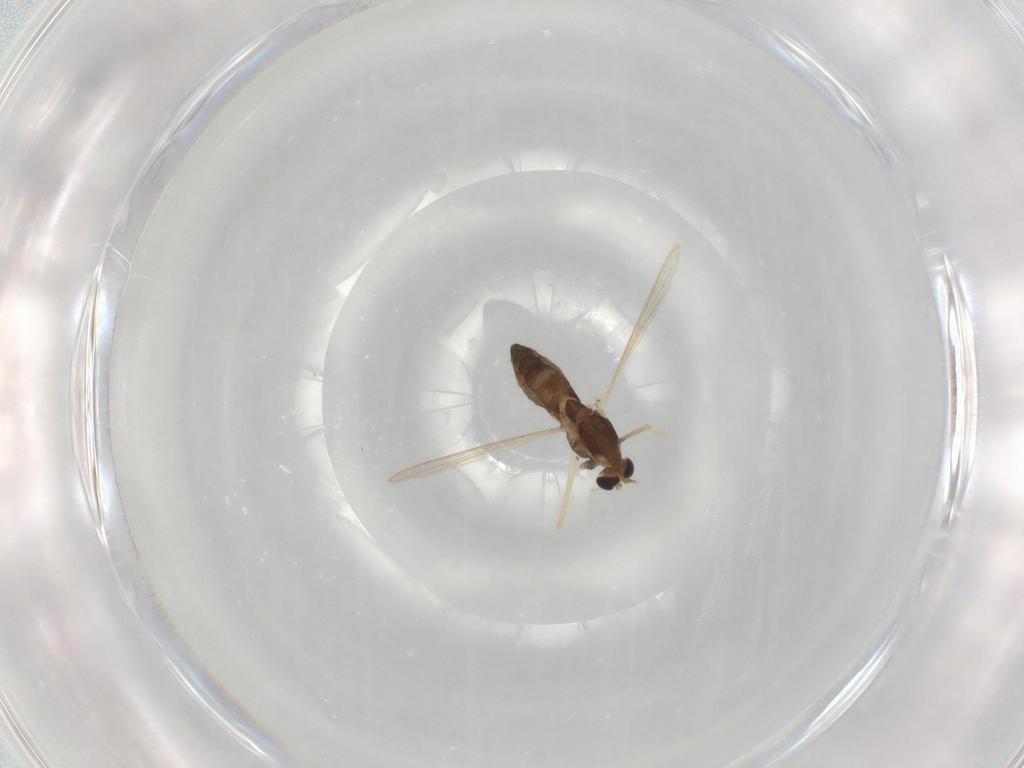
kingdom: Animalia
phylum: Arthropoda
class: Insecta
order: Diptera
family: Chironomidae
